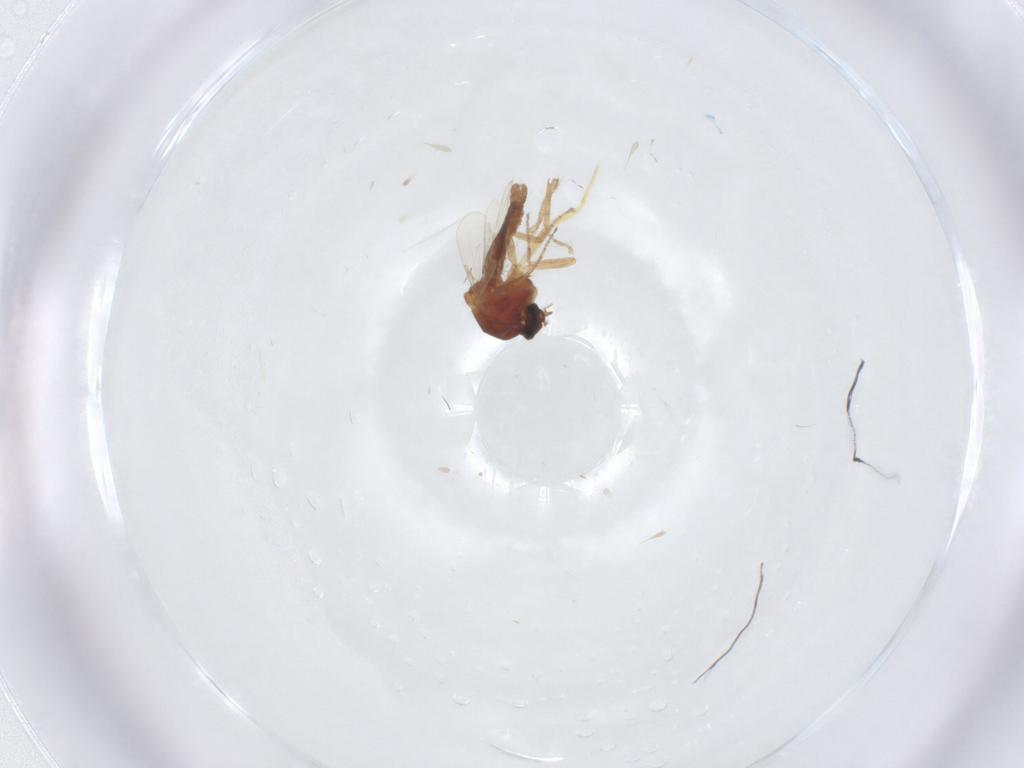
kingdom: Animalia
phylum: Arthropoda
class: Insecta
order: Diptera
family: Ceratopogonidae
